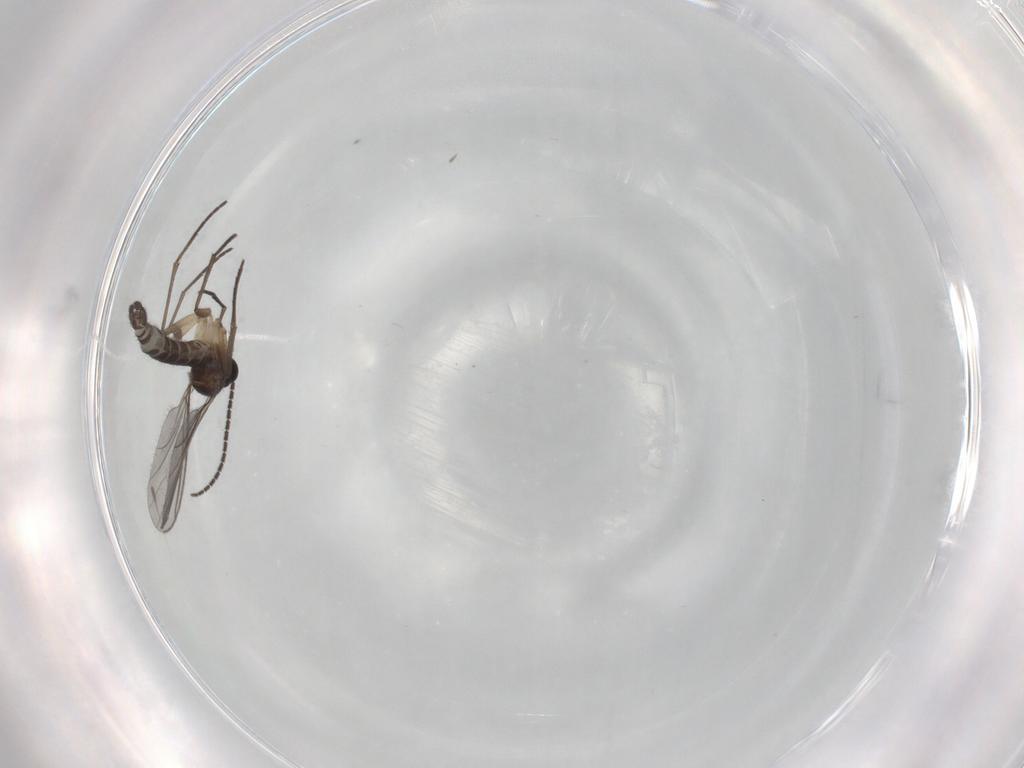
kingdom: Animalia
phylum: Arthropoda
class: Insecta
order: Diptera
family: Sciaridae
